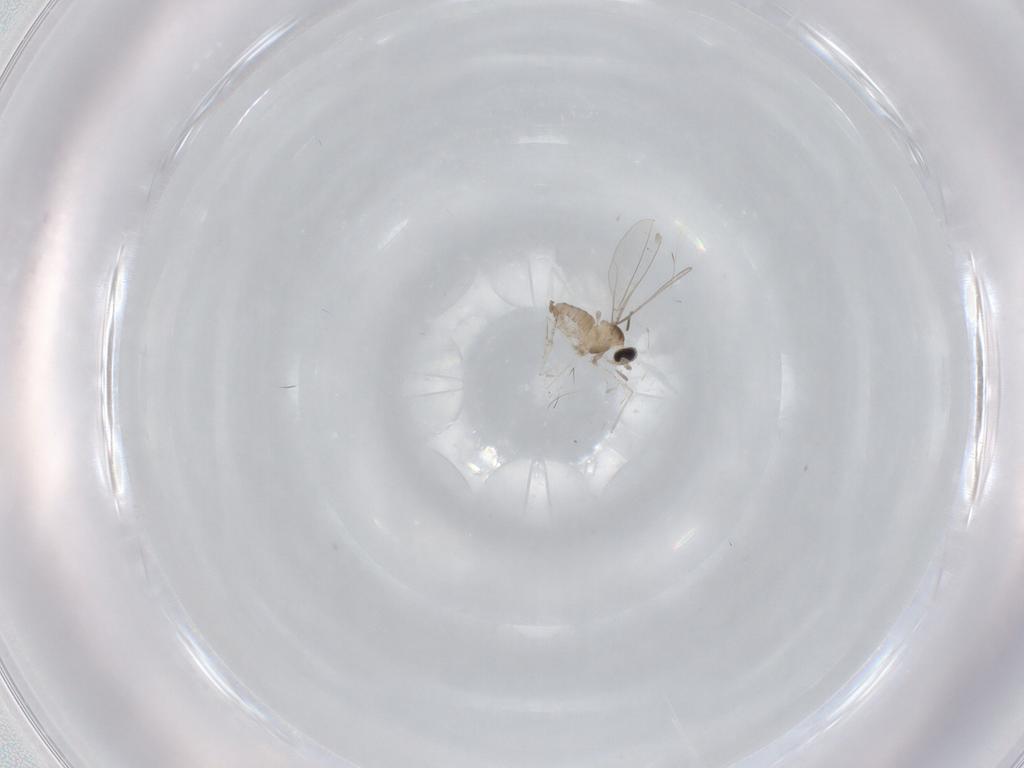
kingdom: Animalia
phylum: Arthropoda
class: Insecta
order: Diptera
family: Cecidomyiidae
